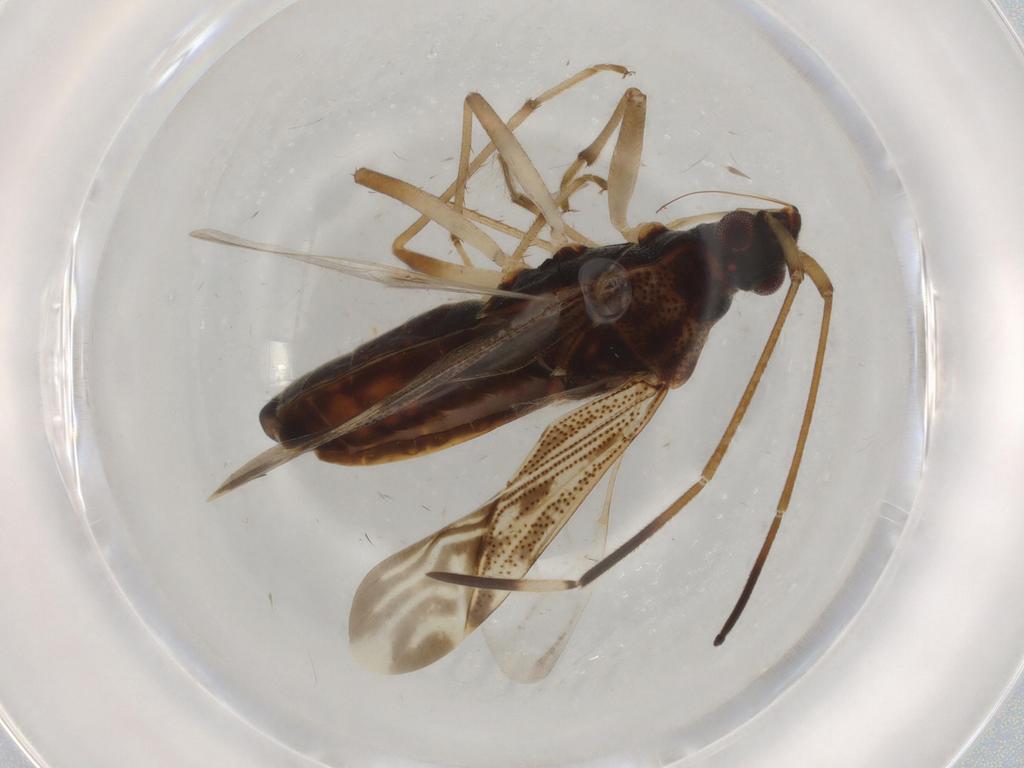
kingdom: Animalia
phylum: Arthropoda
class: Insecta
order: Hemiptera
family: Rhyparochromidae
